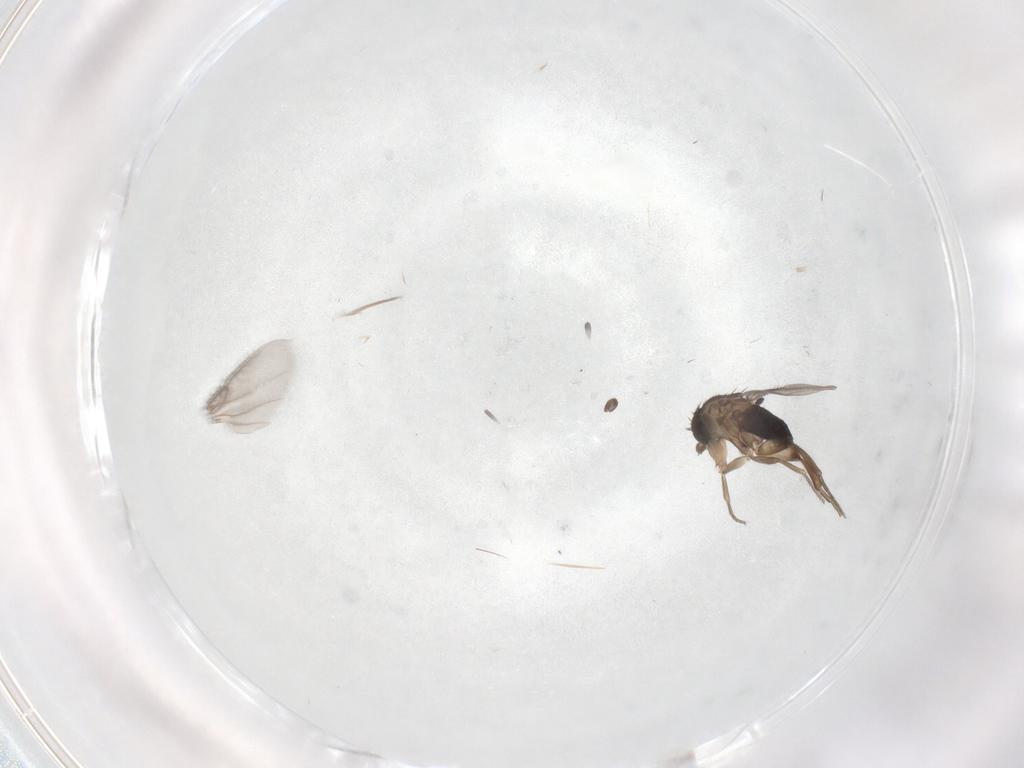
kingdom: Animalia
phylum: Arthropoda
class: Insecta
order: Diptera
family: Phoridae
